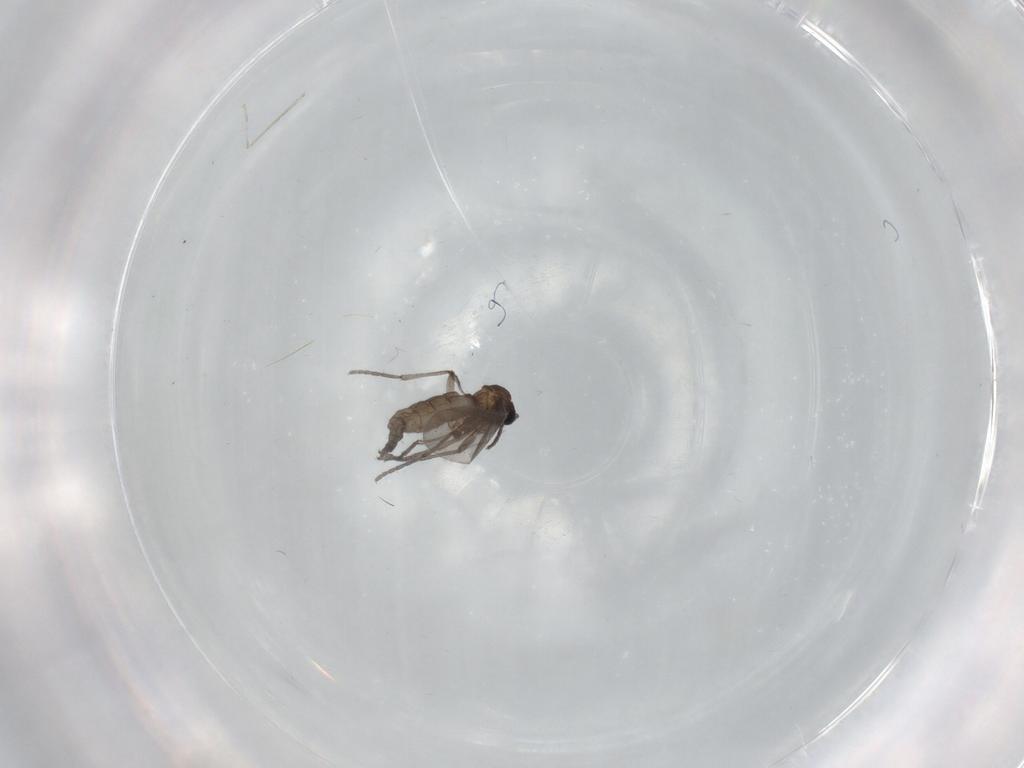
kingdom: Animalia
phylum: Arthropoda
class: Insecta
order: Diptera
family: Sciaridae
